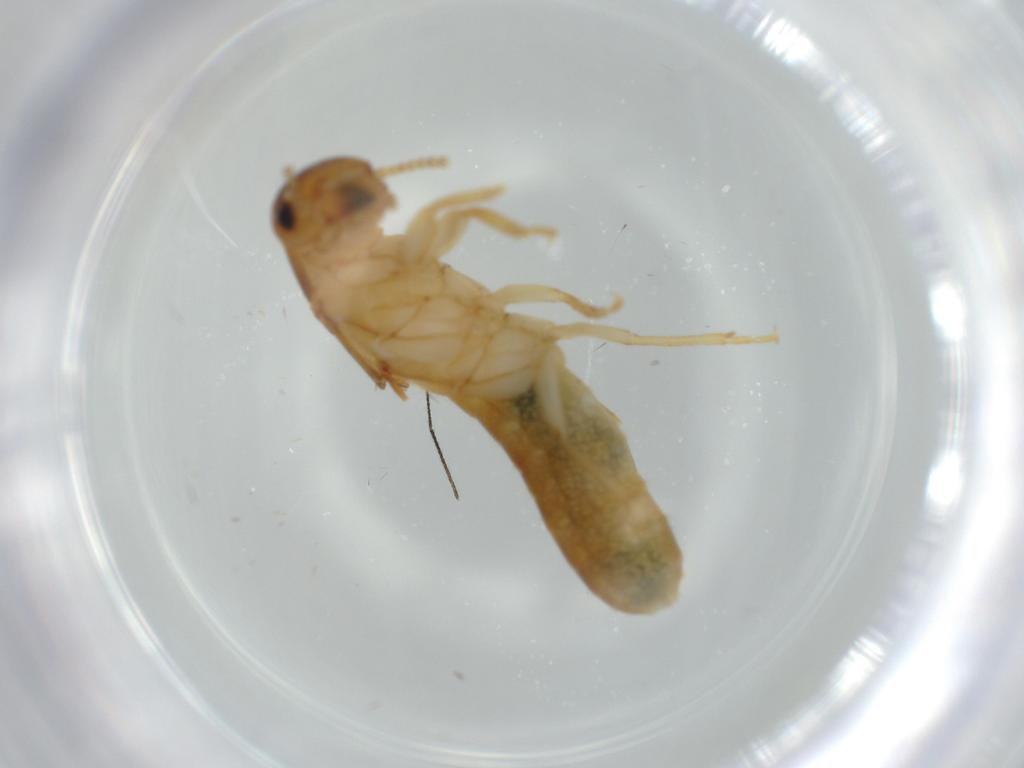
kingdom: Animalia
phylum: Arthropoda
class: Insecta
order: Blattodea
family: Kalotermitidae
